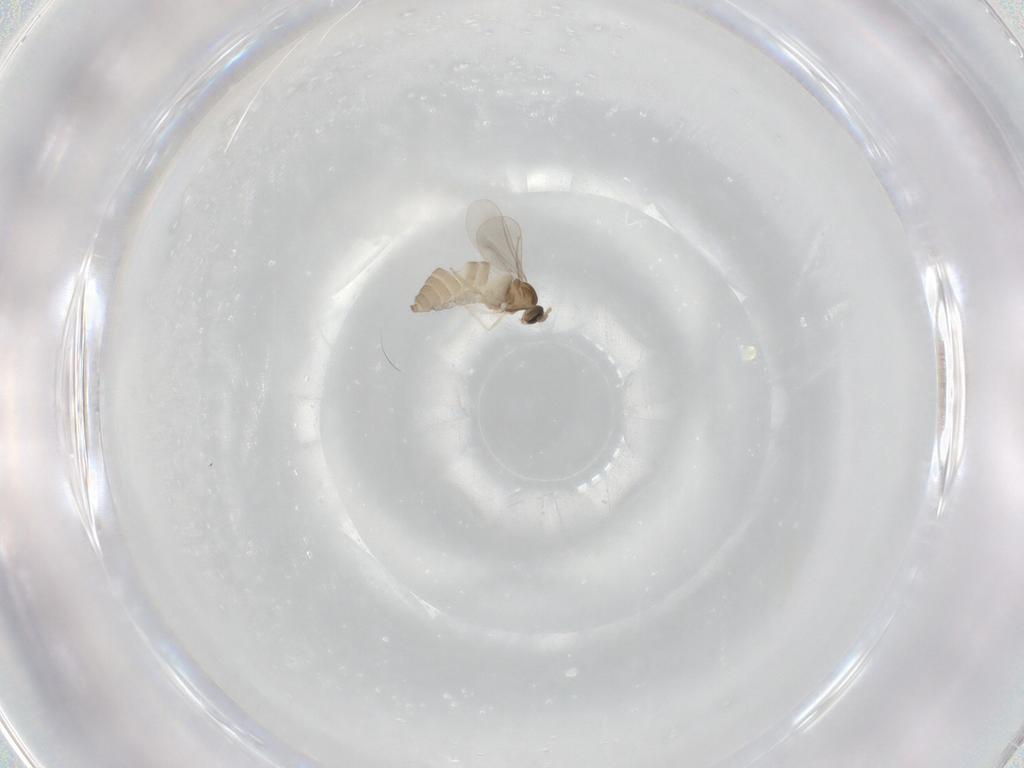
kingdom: Animalia
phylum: Arthropoda
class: Insecta
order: Diptera
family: Cecidomyiidae
